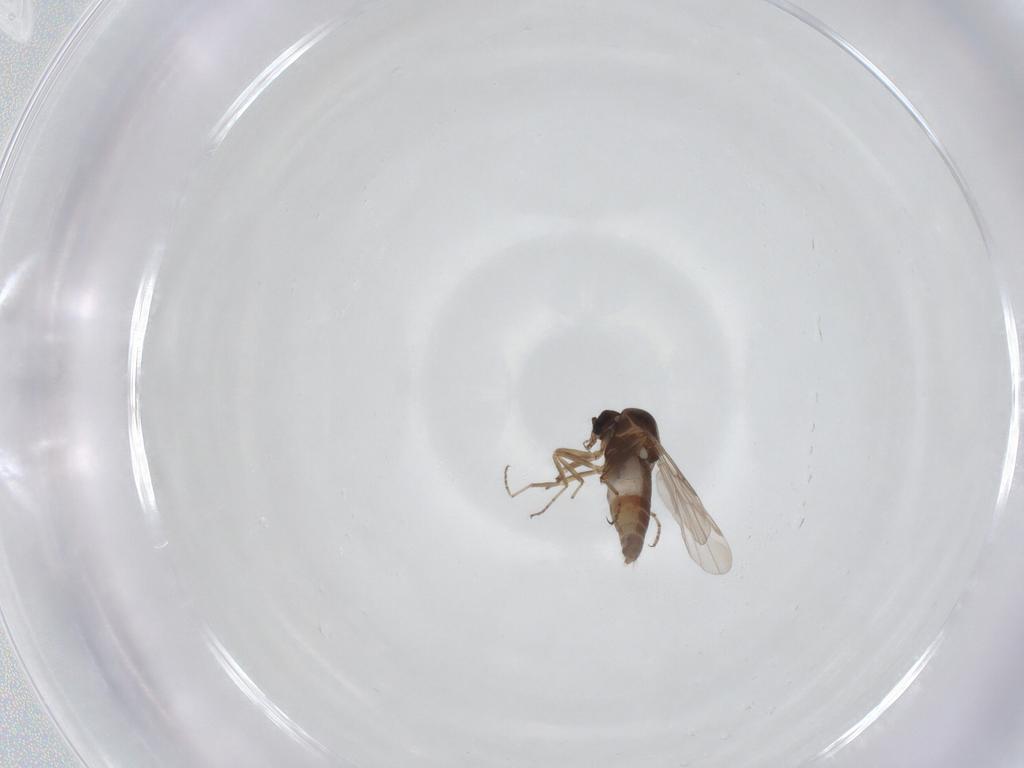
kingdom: Animalia
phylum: Arthropoda
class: Insecta
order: Diptera
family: Ceratopogonidae
